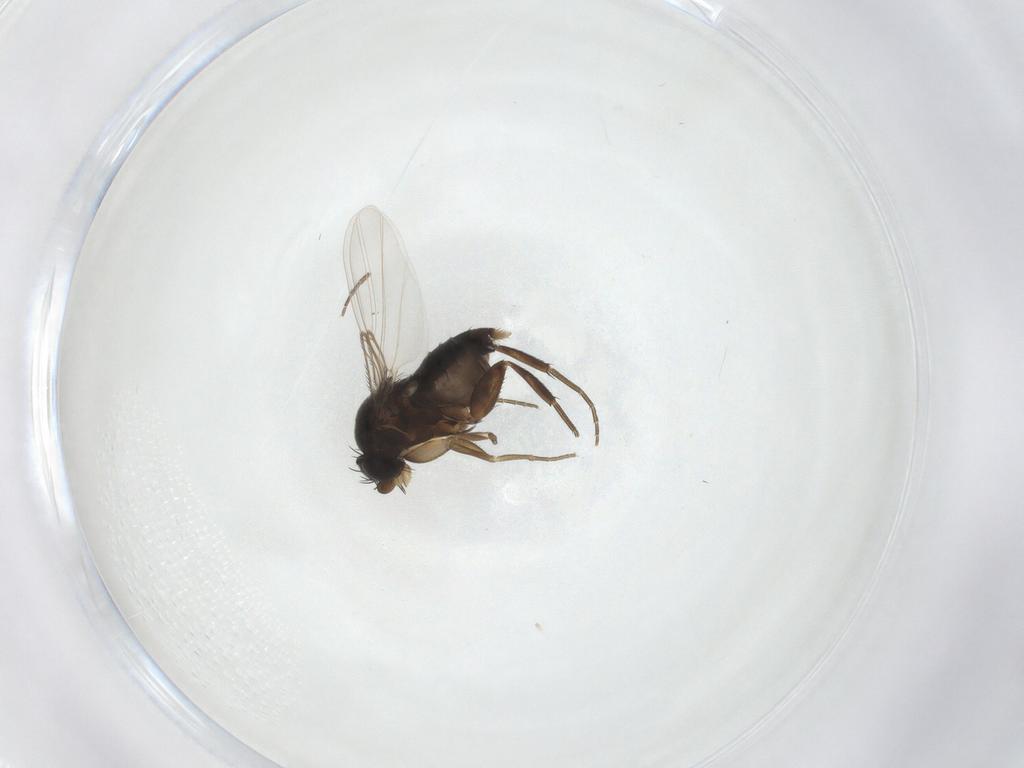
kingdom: Animalia
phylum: Arthropoda
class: Insecta
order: Diptera
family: Phoridae
